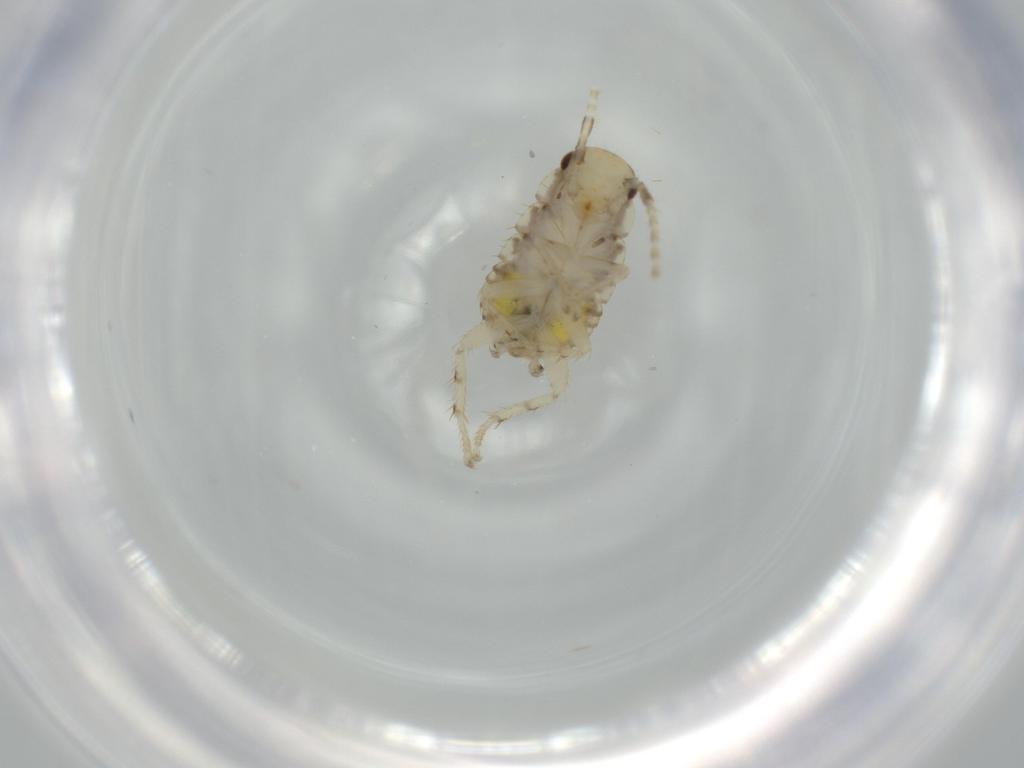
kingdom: Animalia
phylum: Arthropoda
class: Insecta
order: Blattodea
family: Ectobiidae
